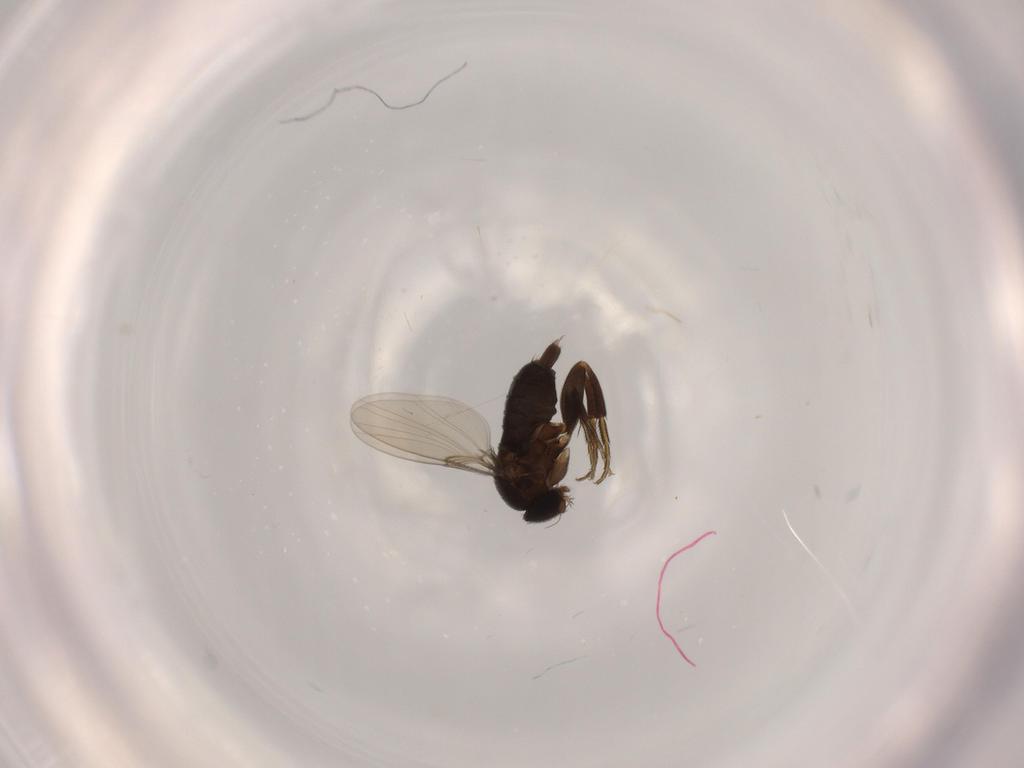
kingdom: Animalia
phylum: Arthropoda
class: Insecta
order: Diptera
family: Phoridae
